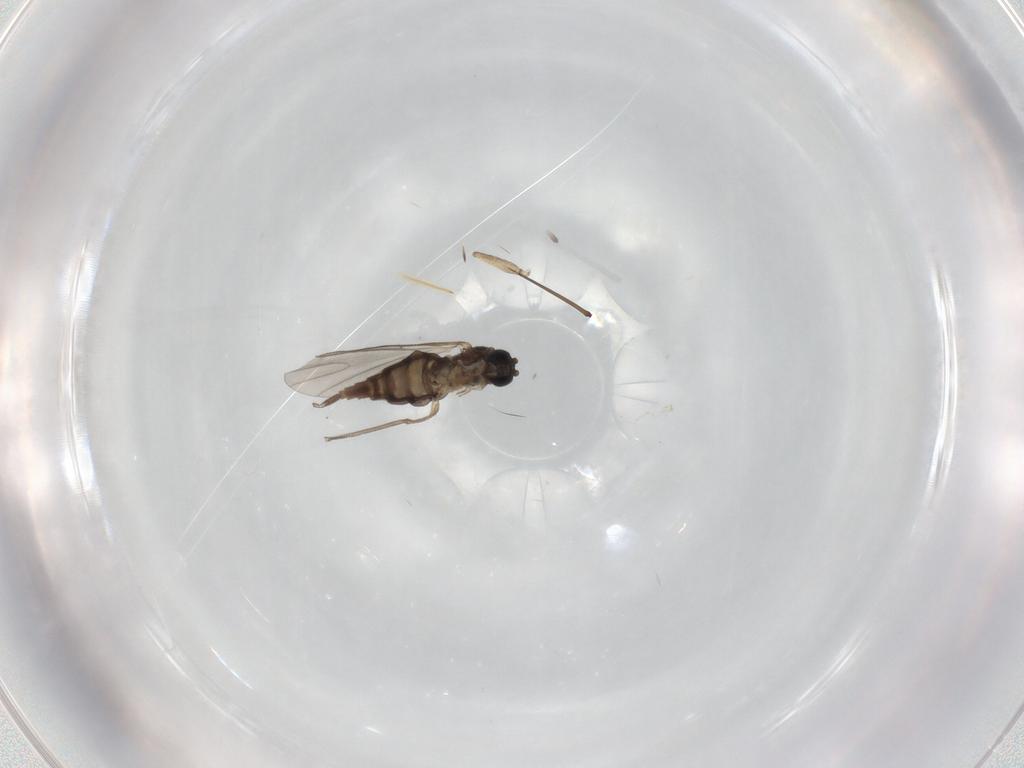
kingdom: Animalia
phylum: Arthropoda
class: Insecta
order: Diptera
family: Sciaridae
